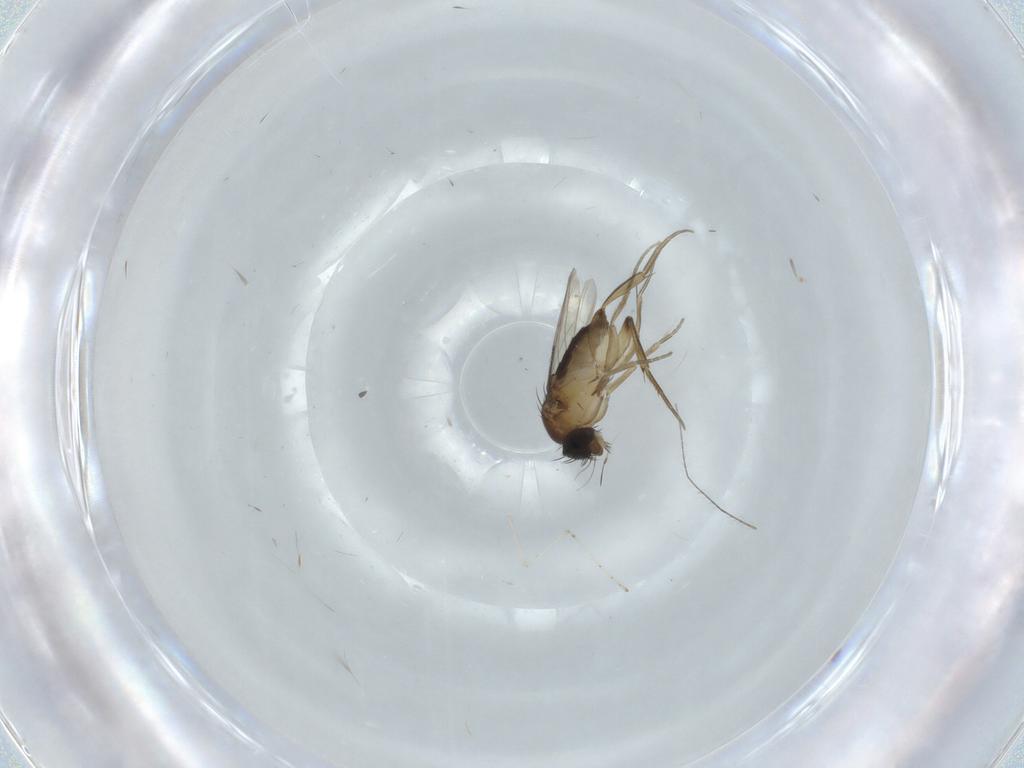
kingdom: Animalia
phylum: Arthropoda
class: Insecta
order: Diptera
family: Phoridae
